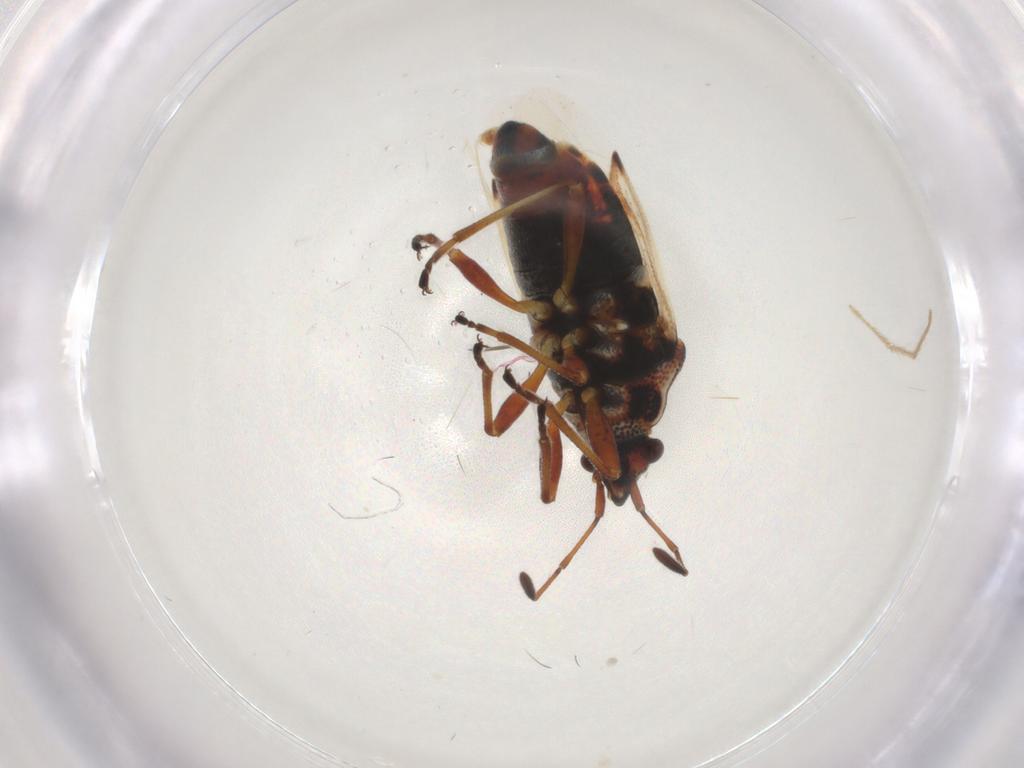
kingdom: Animalia
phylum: Arthropoda
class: Insecta
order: Hemiptera
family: Lygaeidae
